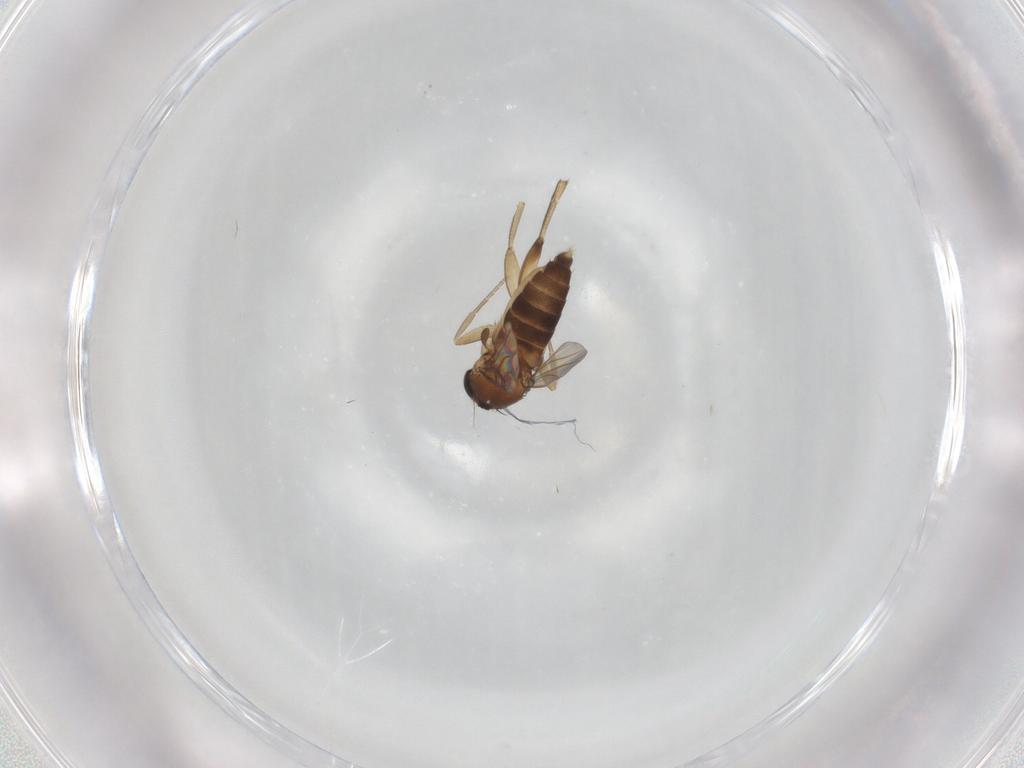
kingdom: Animalia
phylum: Arthropoda
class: Insecta
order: Diptera
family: Phoridae
